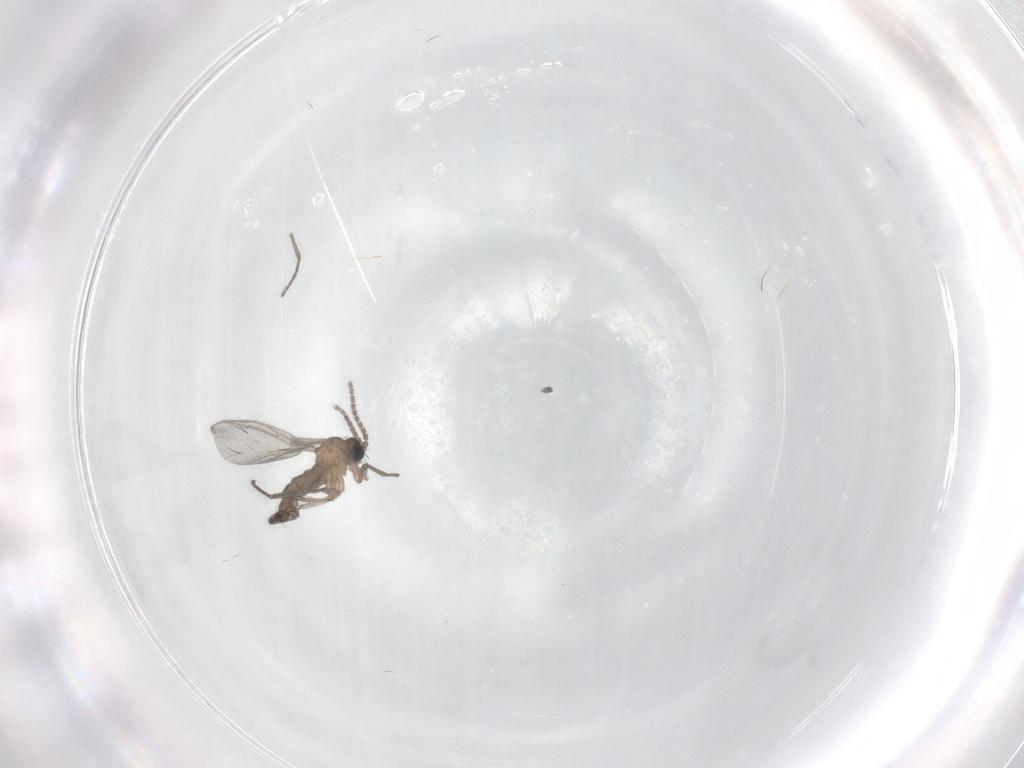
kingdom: Animalia
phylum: Arthropoda
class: Insecta
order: Diptera
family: Sciaridae
